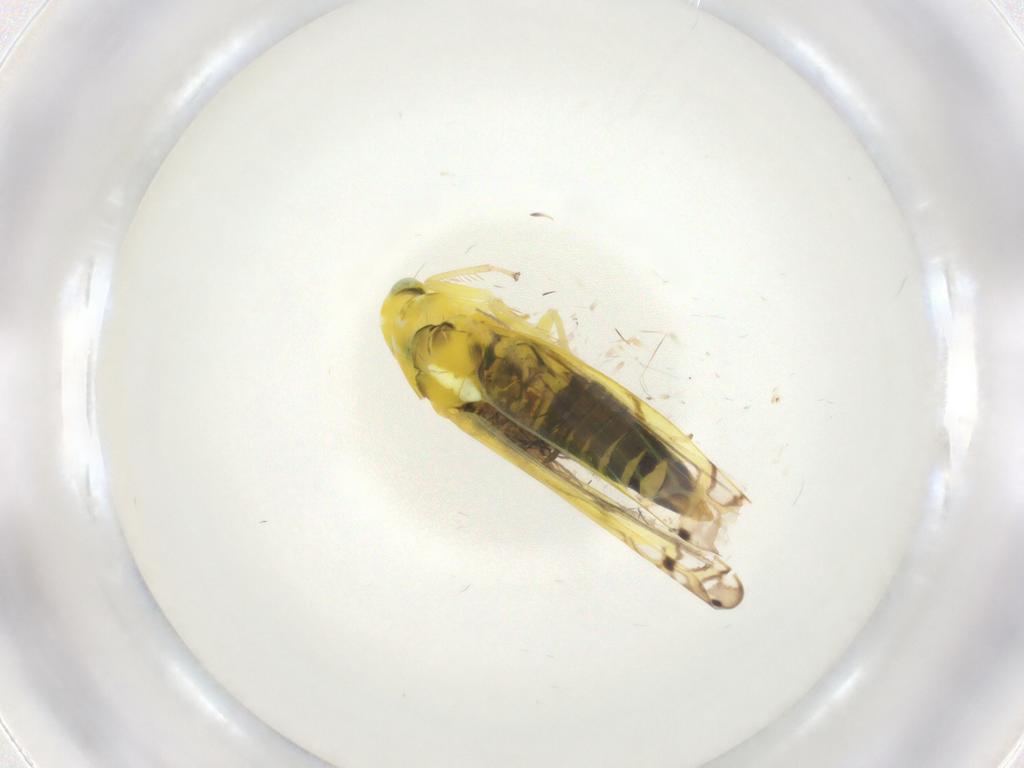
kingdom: Animalia
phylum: Arthropoda
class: Insecta
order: Hemiptera
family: Cicadellidae
